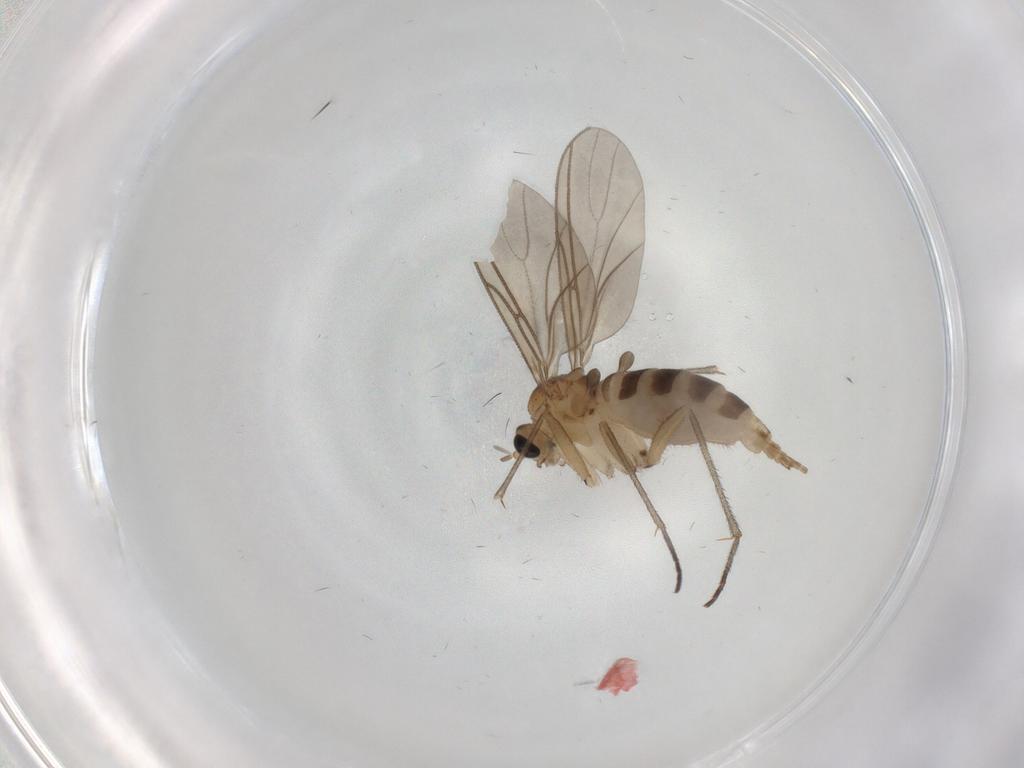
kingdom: Animalia
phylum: Arthropoda
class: Insecta
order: Diptera
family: Sciaridae
